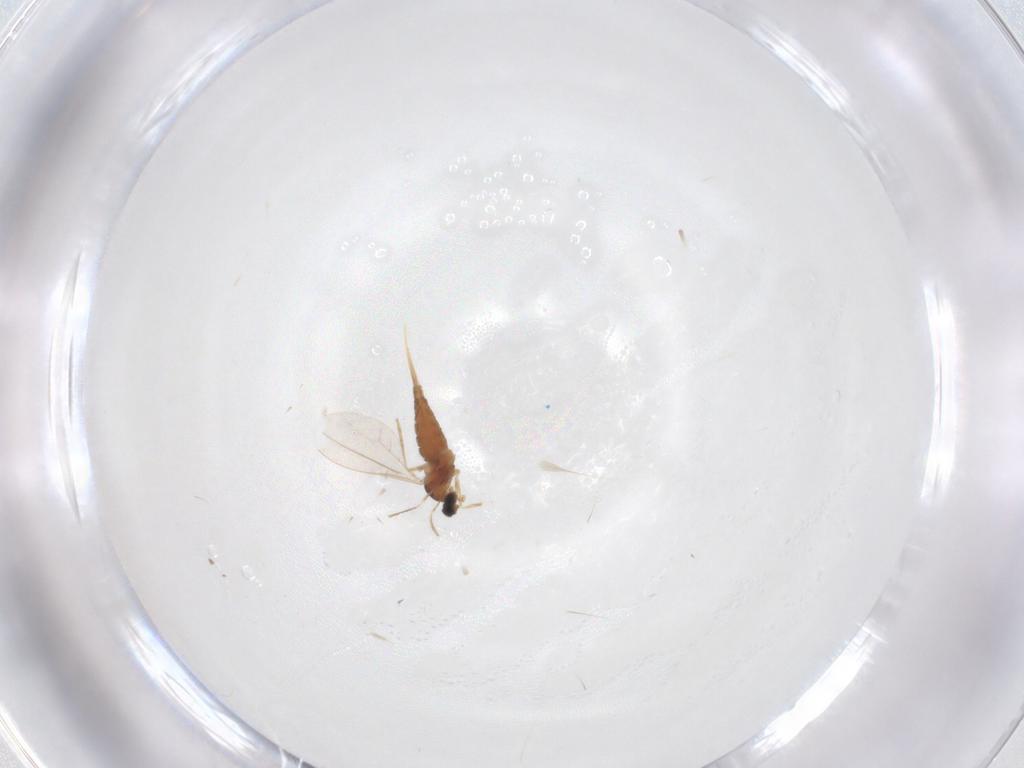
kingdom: Animalia
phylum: Arthropoda
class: Insecta
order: Diptera
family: Cecidomyiidae
